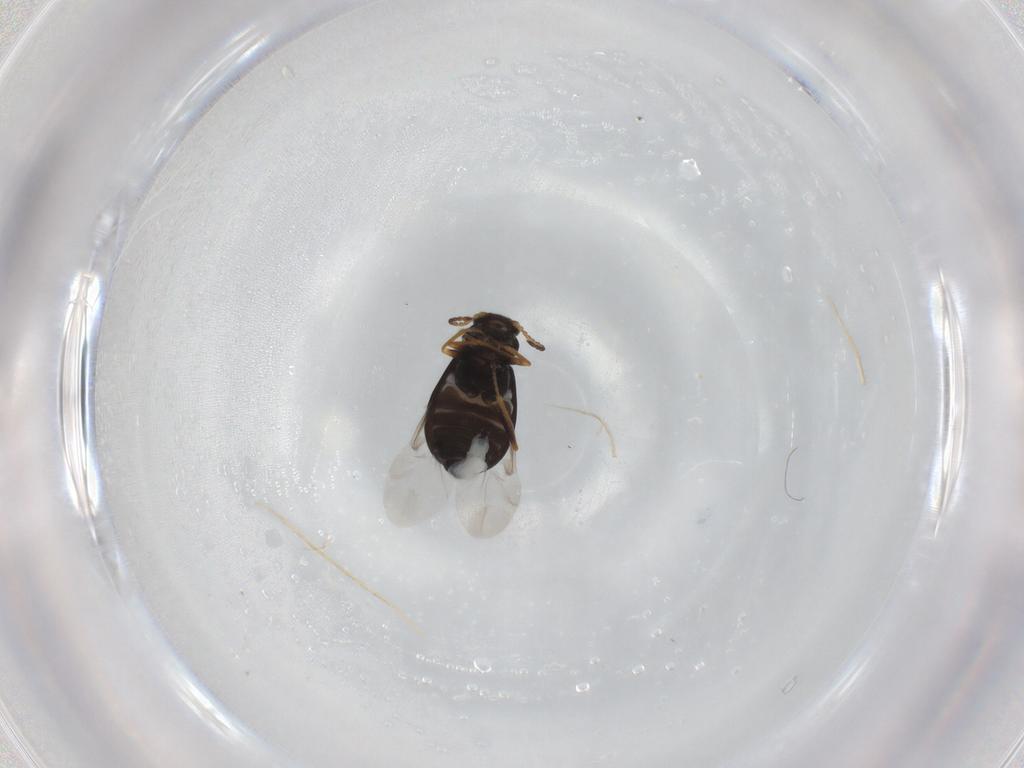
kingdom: Animalia
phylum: Arthropoda
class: Insecta
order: Coleoptera
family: Melyridae
